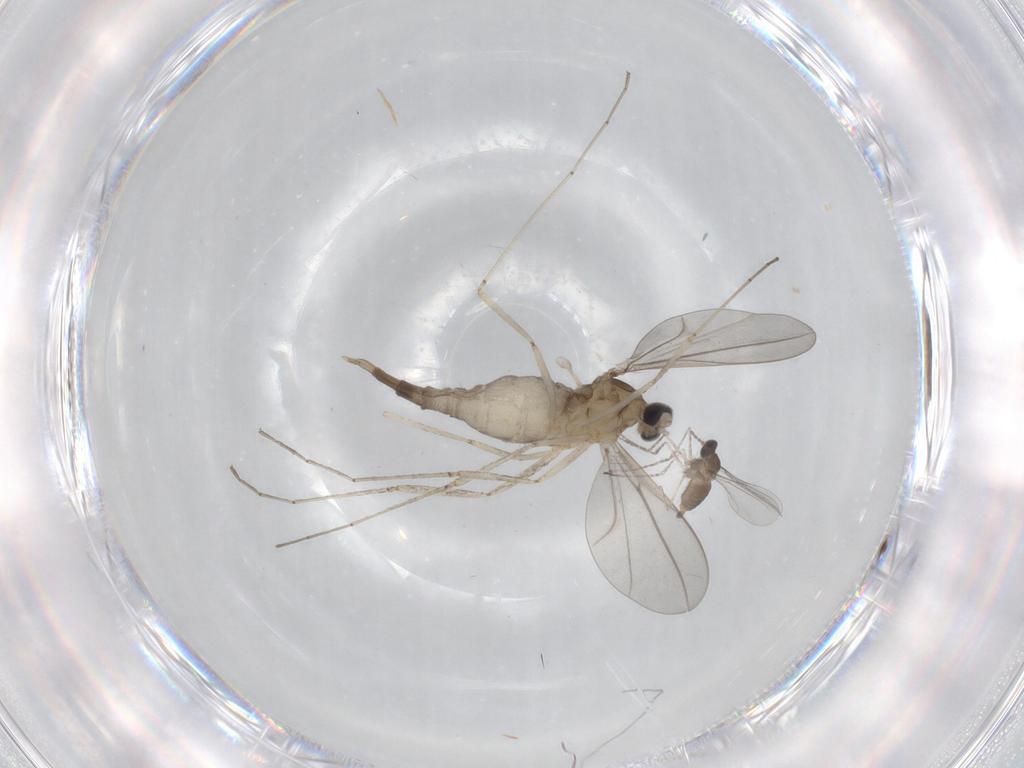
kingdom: Animalia
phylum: Arthropoda
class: Insecta
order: Diptera
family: Cecidomyiidae
